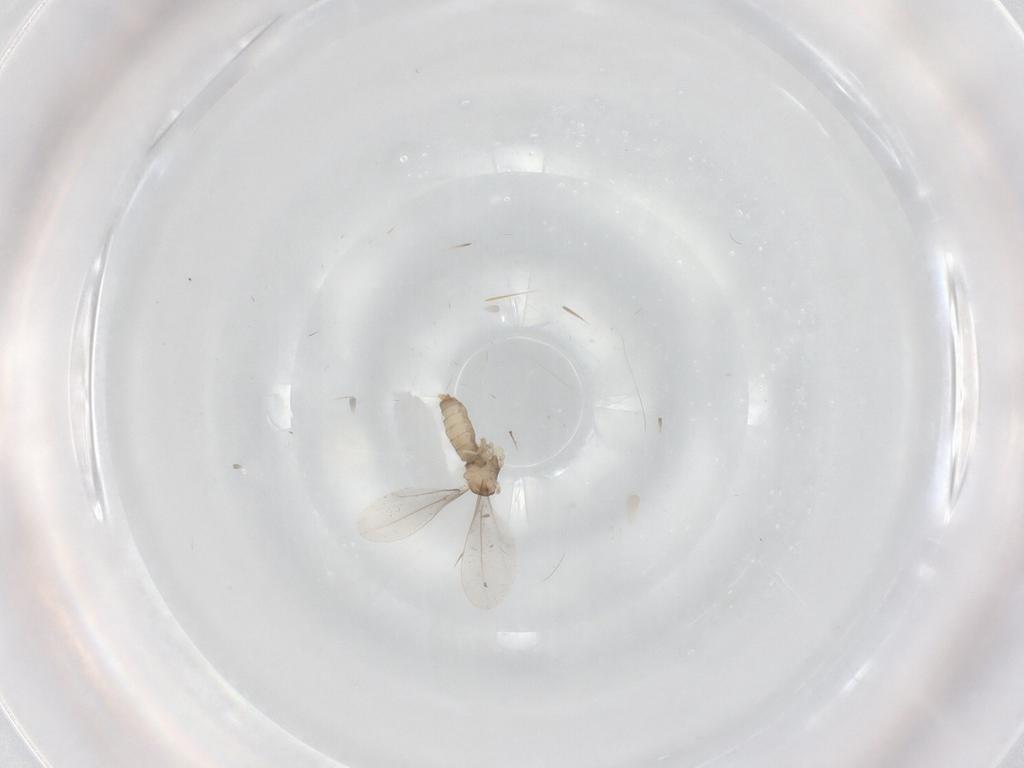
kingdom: Animalia
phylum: Arthropoda
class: Insecta
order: Diptera
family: Cecidomyiidae
